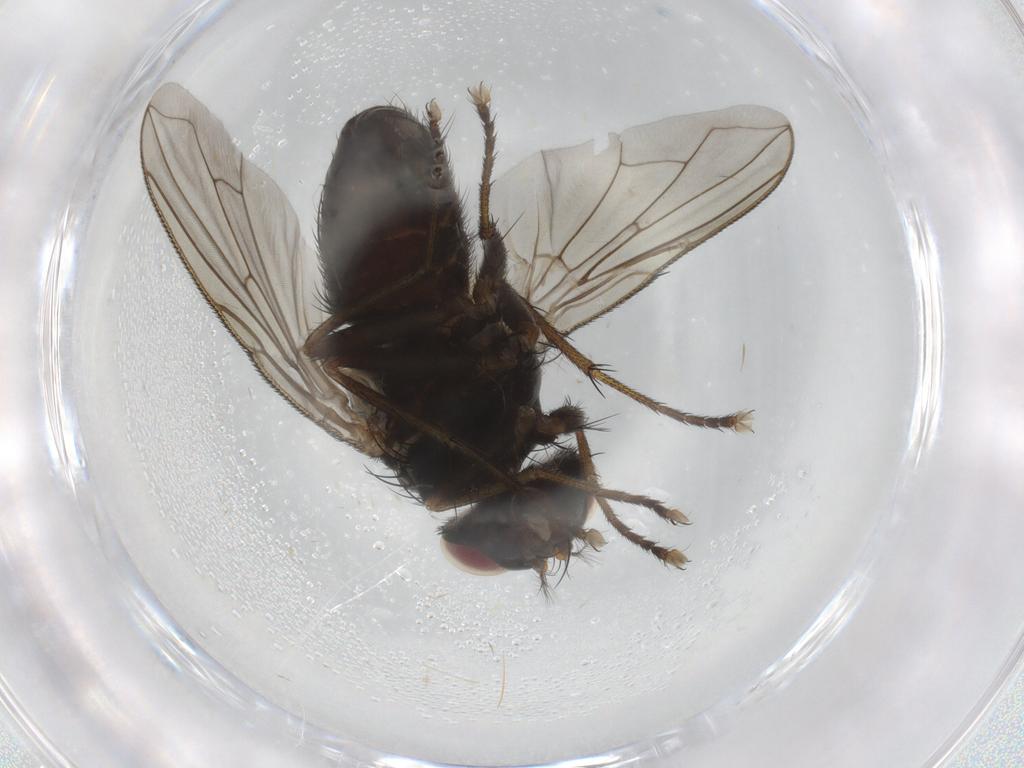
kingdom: Animalia
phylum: Arthropoda
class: Insecta
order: Diptera
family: Calliphoridae
